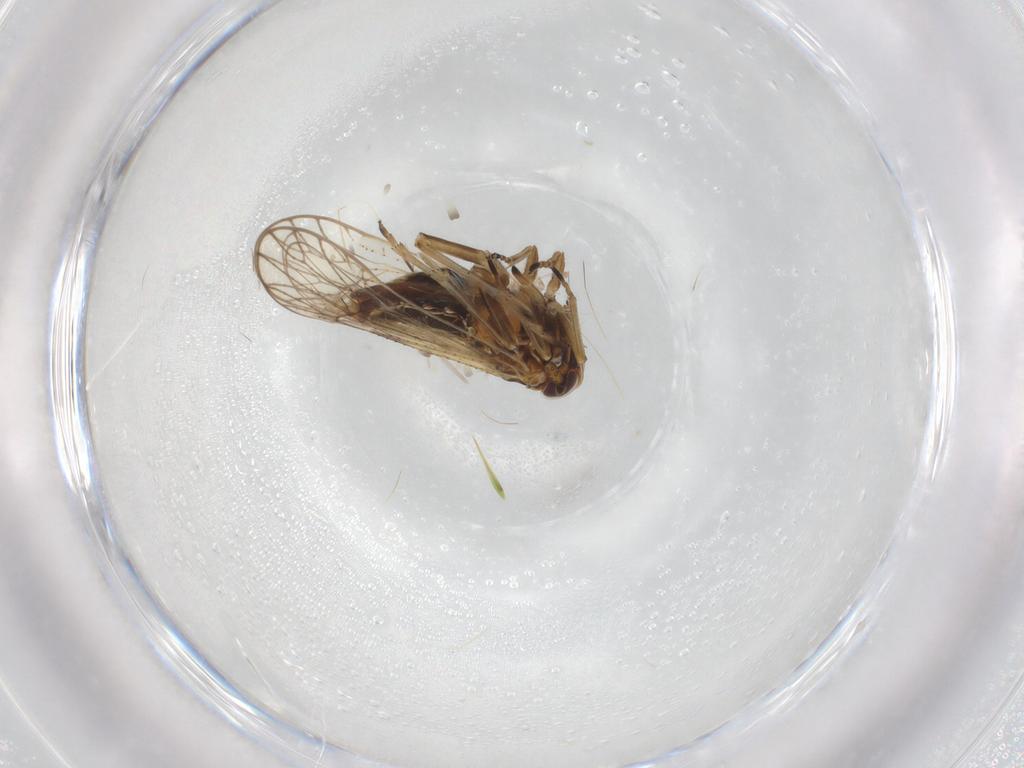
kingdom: Animalia
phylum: Arthropoda
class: Insecta
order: Hemiptera
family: Delphacidae
